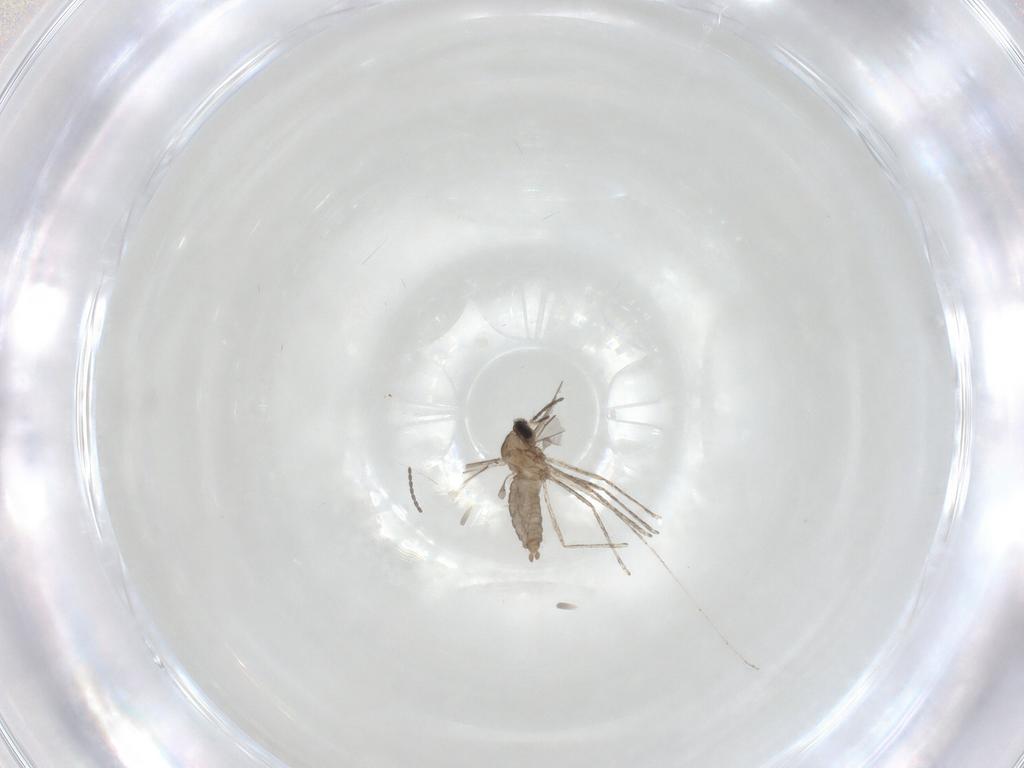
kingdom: Animalia
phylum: Arthropoda
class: Insecta
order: Diptera
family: Cecidomyiidae
